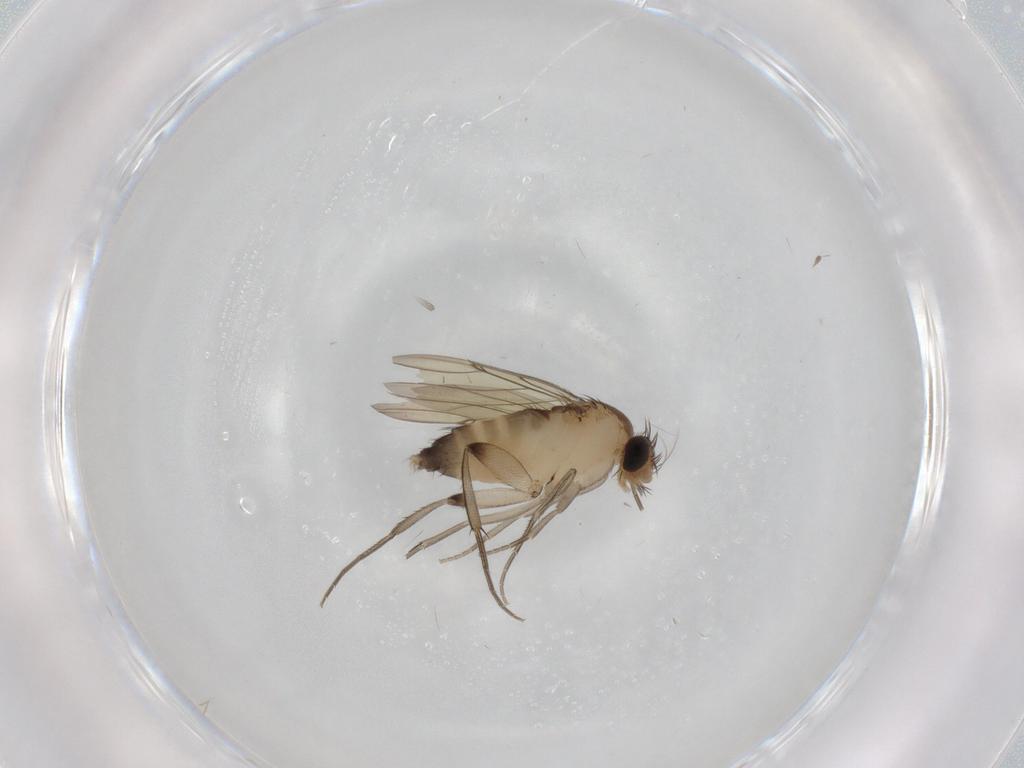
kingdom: Animalia
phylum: Arthropoda
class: Insecta
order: Diptera
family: Phoridae
